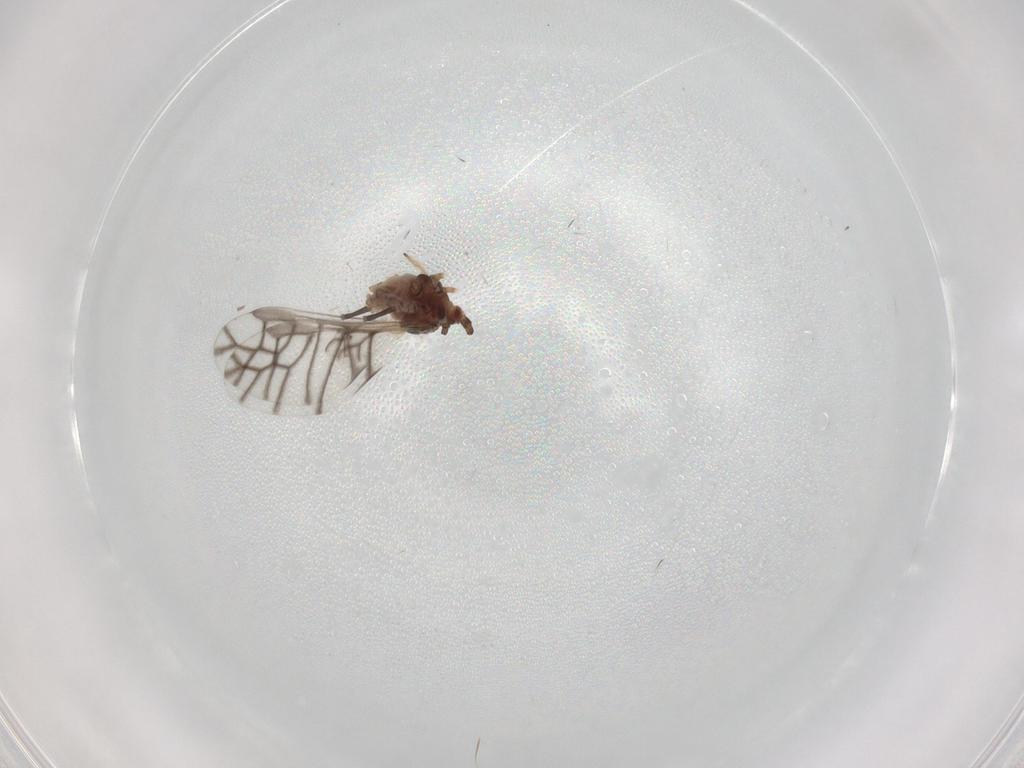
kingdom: Animalia
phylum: Arthropoda
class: Insecta
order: Hemiptera
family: Aphididae
